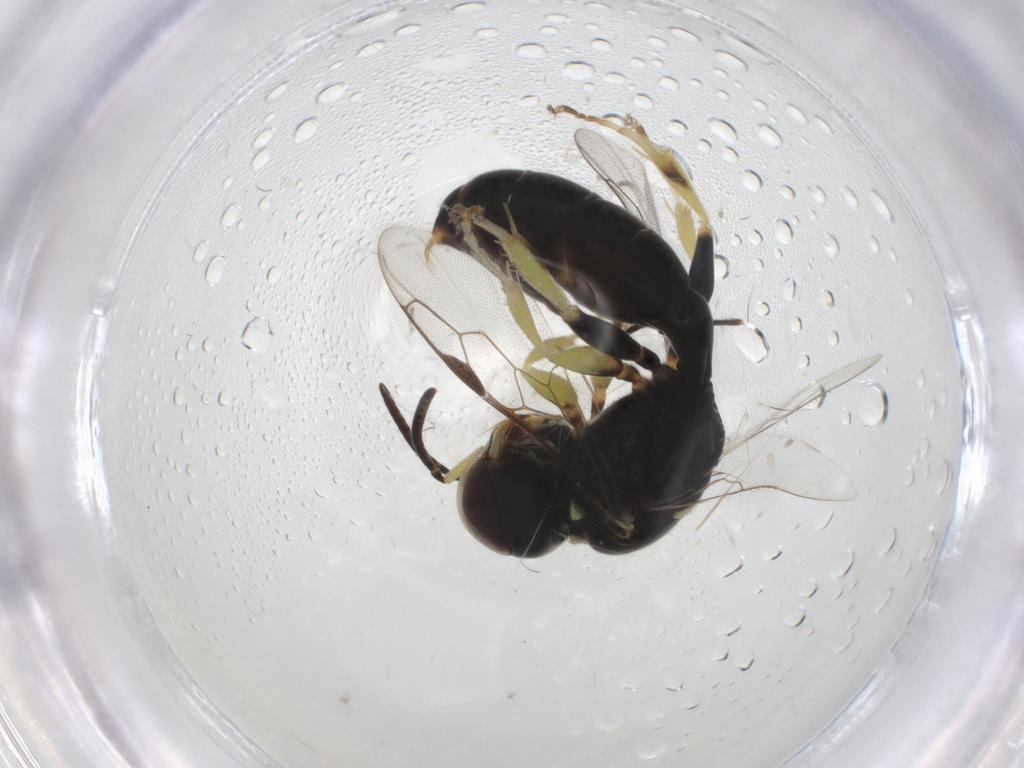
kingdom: Animalia
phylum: Arthropoda
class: Insecta
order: Hymenoptera
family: Crabronidae
